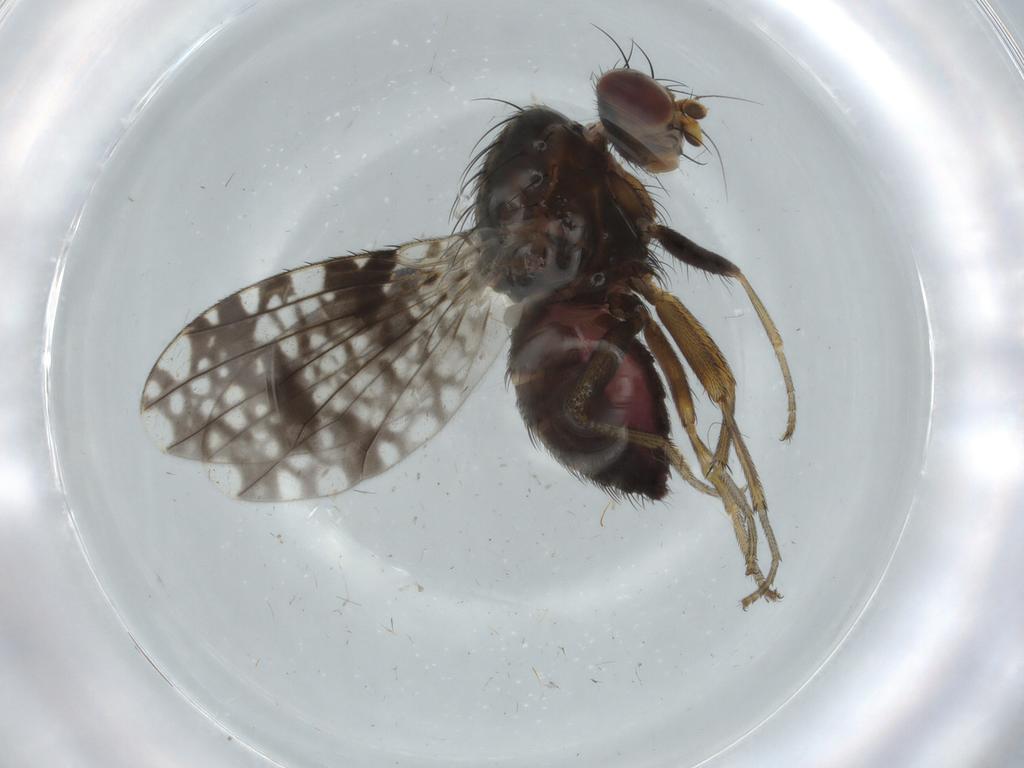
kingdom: Animalia
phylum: Arthropoda
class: Insecta
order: Diptera
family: Tephritidae
